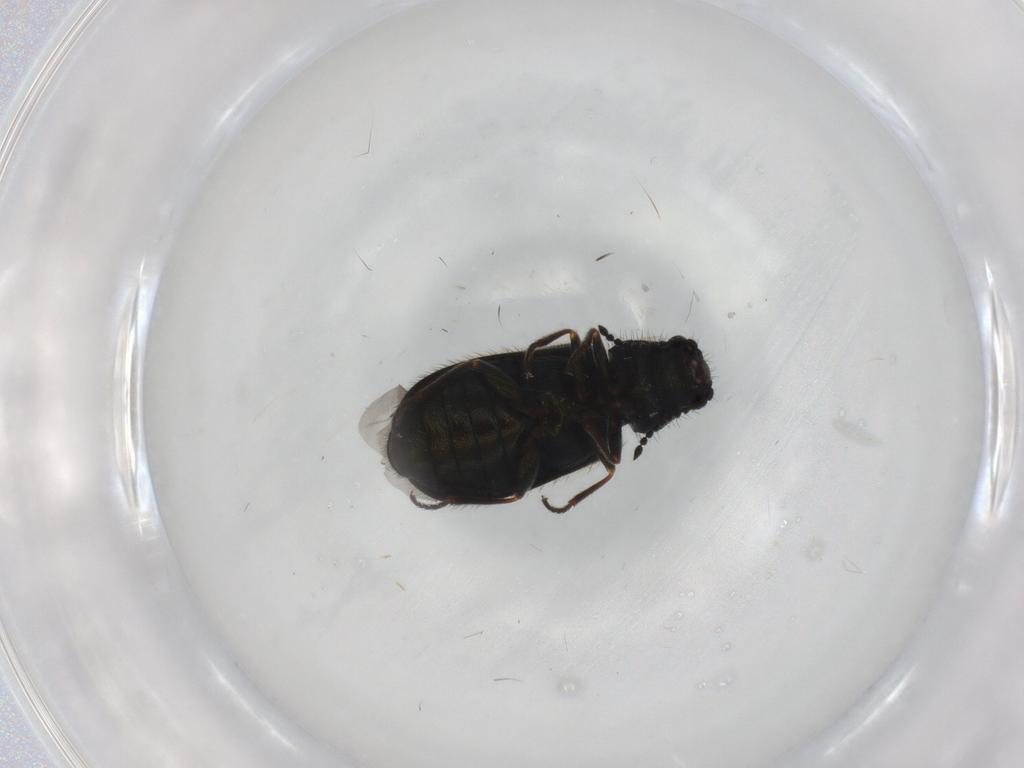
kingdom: Animalia
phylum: Arthropoda
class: Insecta
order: Coleoptera
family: Melyridae
